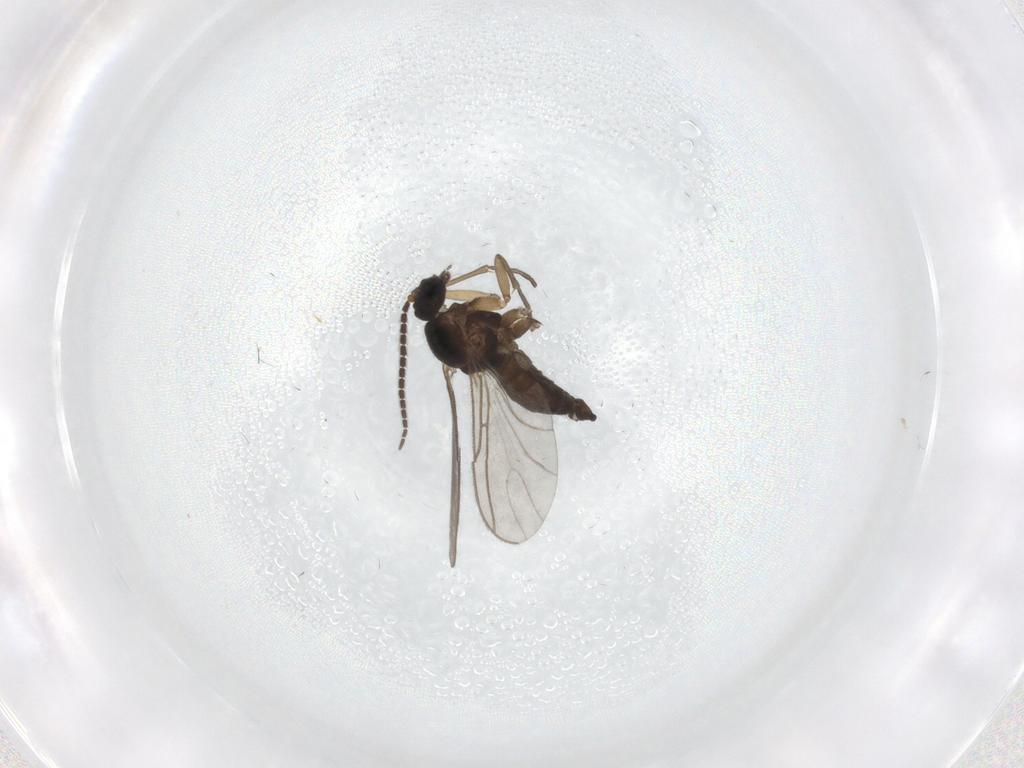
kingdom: Animalia
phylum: Arthropoda
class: Insecta
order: Diptera
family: Sciaridae
